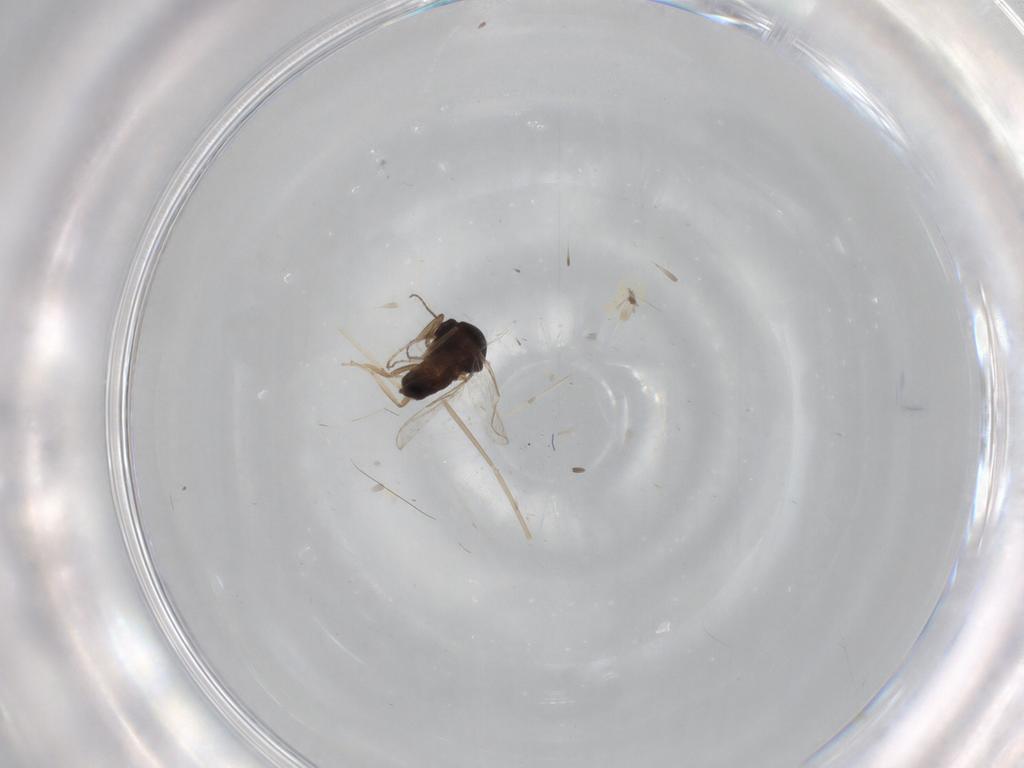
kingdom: Animalia
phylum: Arthropoda
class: Insecta
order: Diptera
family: Ceratopogonidae
